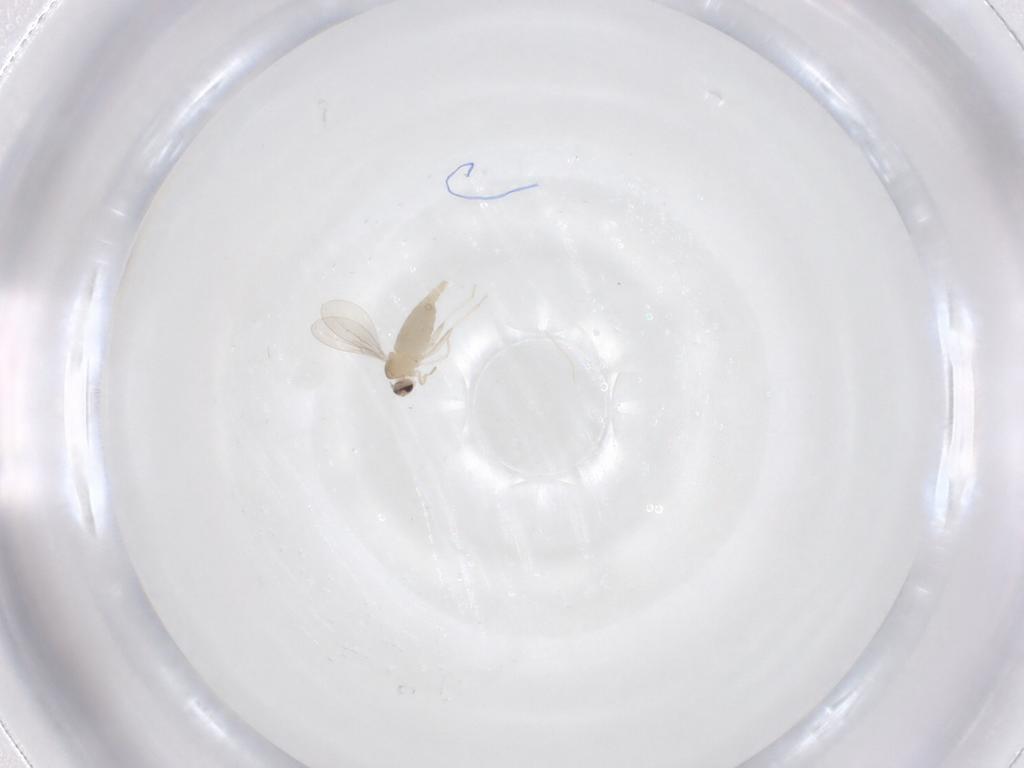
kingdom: Animalia
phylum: Arthropoda
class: Insecta
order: Diptera
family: Cecidomyiidae
